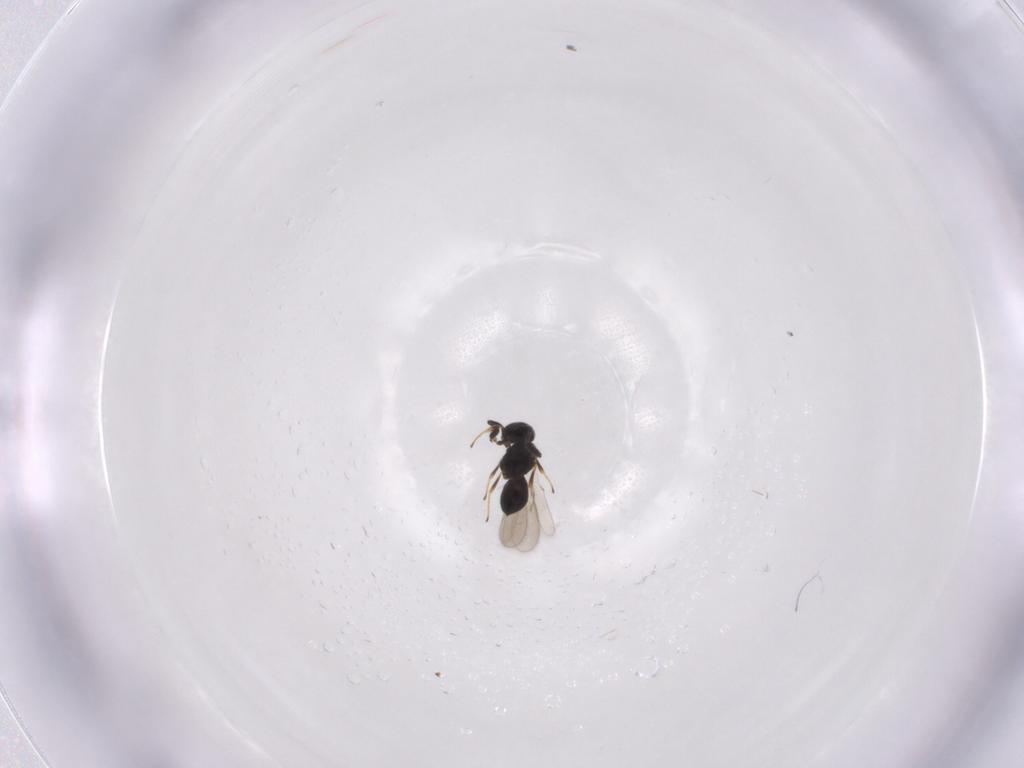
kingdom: Animalia
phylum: Arthropoda
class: Insecta
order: Hymenoptera
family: Scelionidae
